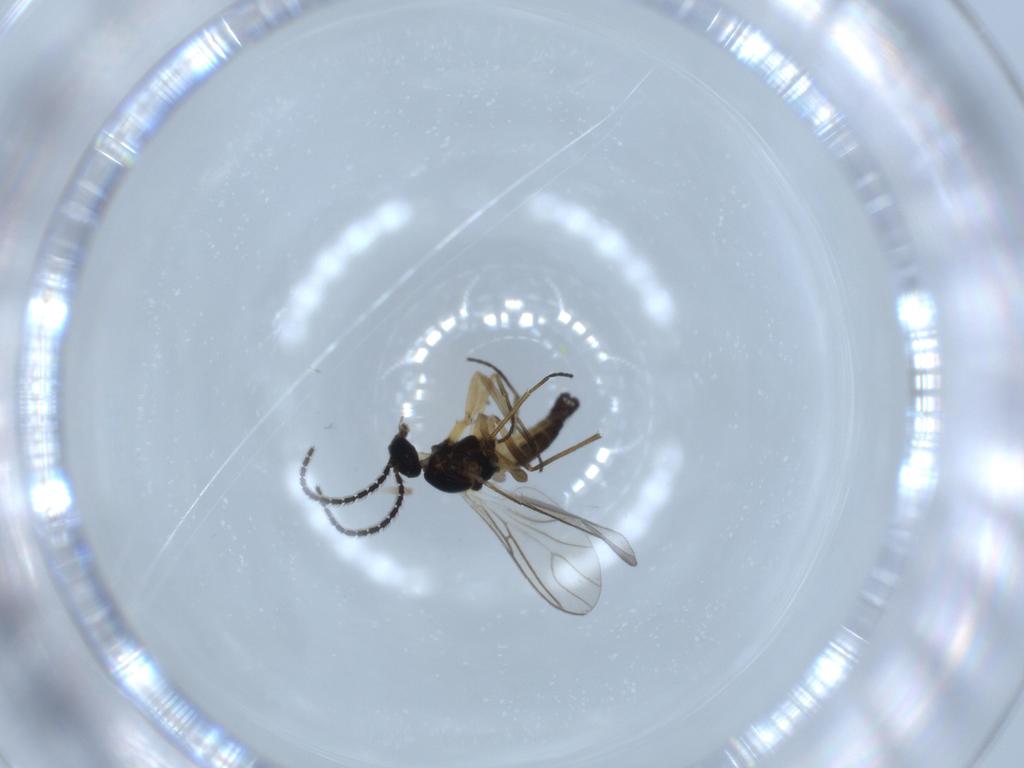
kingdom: Animalia
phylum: Arthropoda
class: Insecta
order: Diptera
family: Sciaridae
